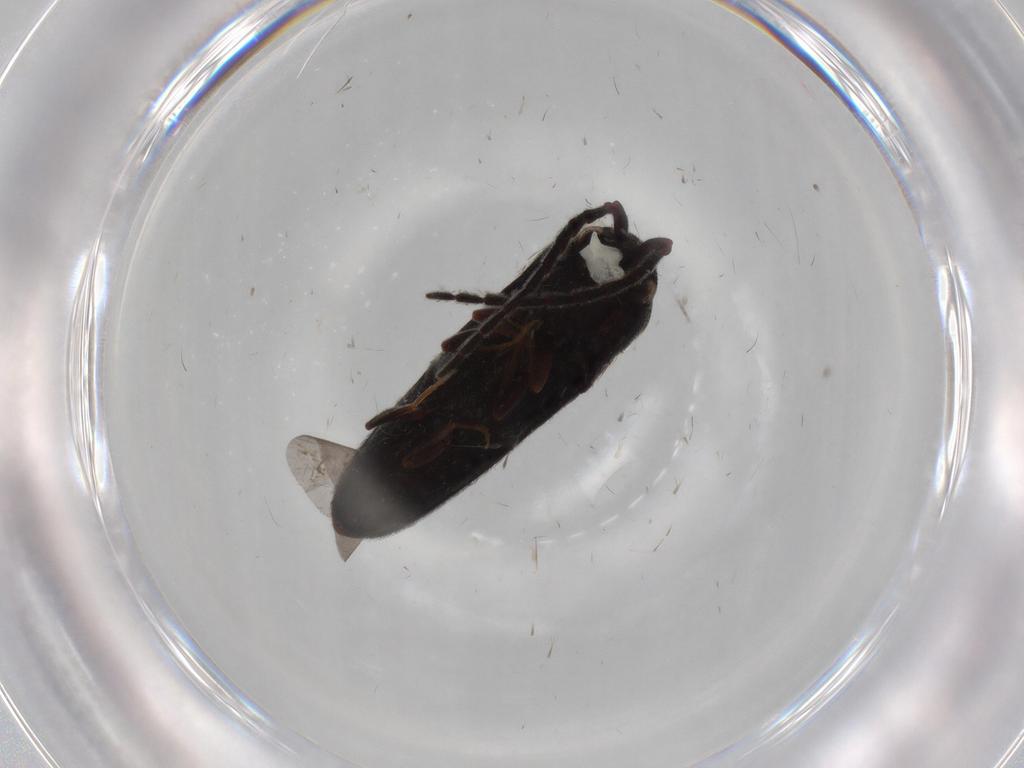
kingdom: Animalia
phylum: Arthropoda
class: Insecta
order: Coleoptera
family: Eucnemidae
